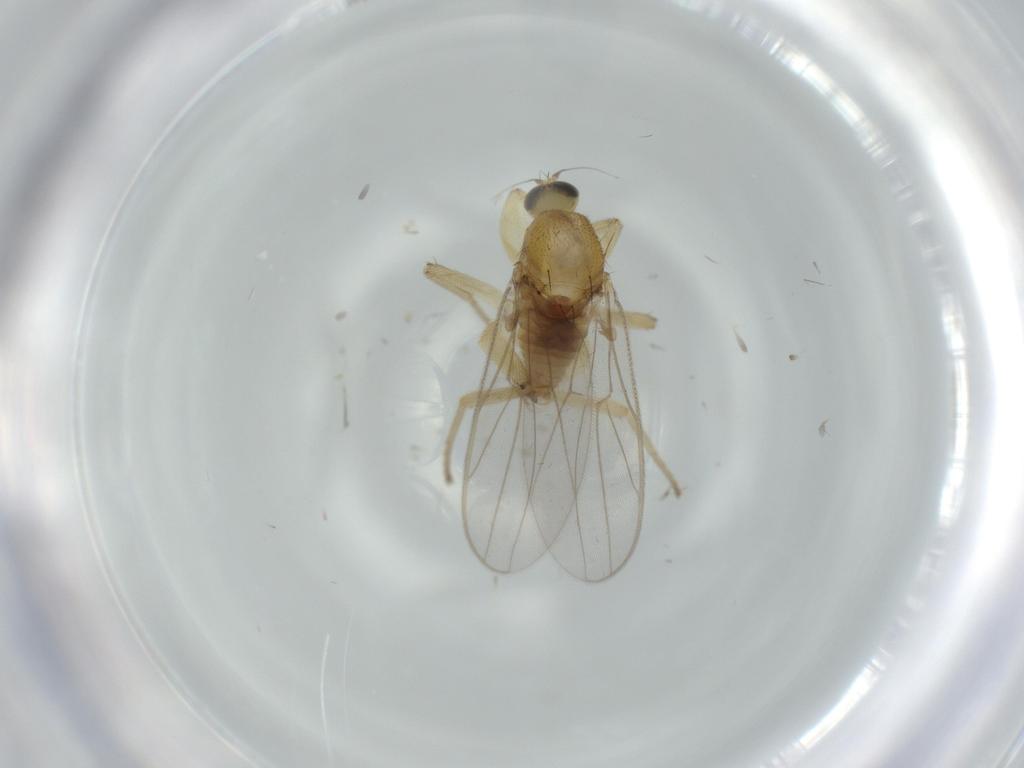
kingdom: Animalia
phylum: Arthropoda
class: Insecta
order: Diptera
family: Hybotidae
